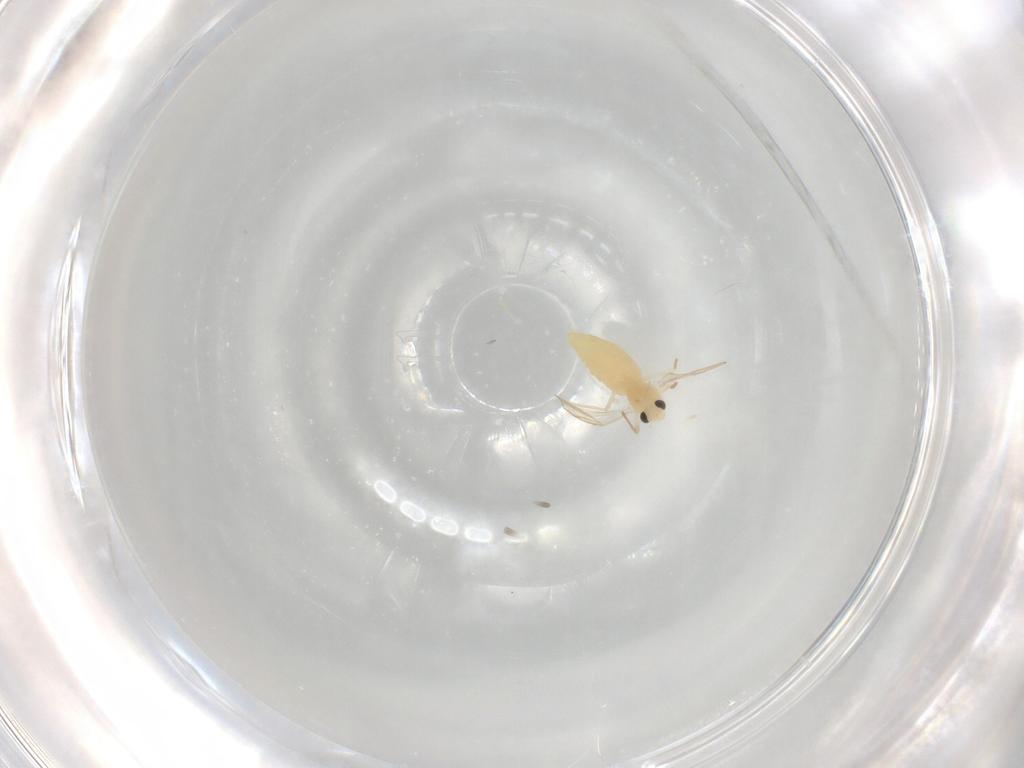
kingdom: Animalia
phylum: Arthropoda
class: Insecta
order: Diptera
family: Chironomidae
